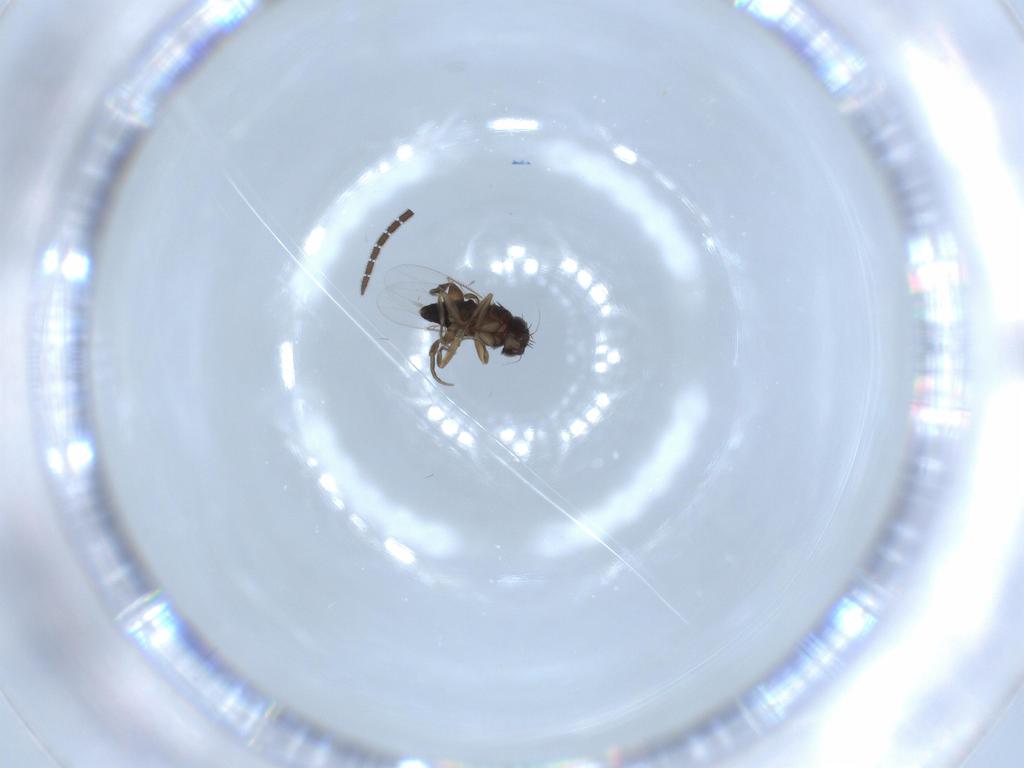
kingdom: Animalia
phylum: Arthropoda
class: Insecta
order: Diptera
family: Phoridae
